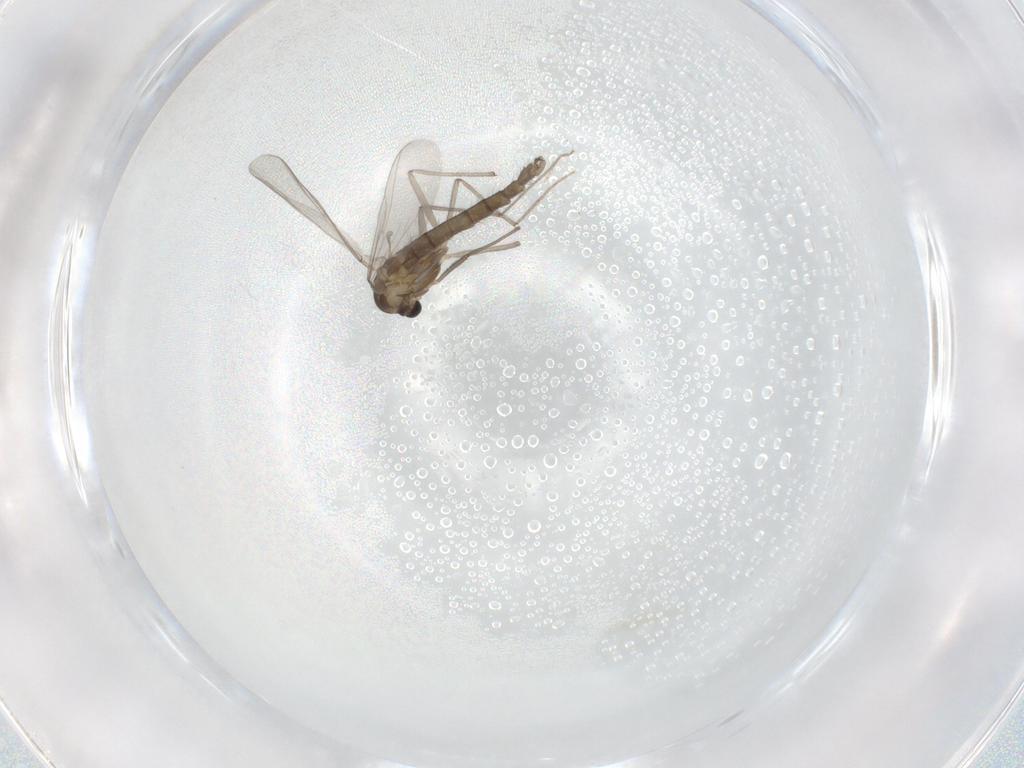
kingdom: Animalia
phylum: Arthropoda
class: Insecta
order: Diptera
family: Chironomidae
